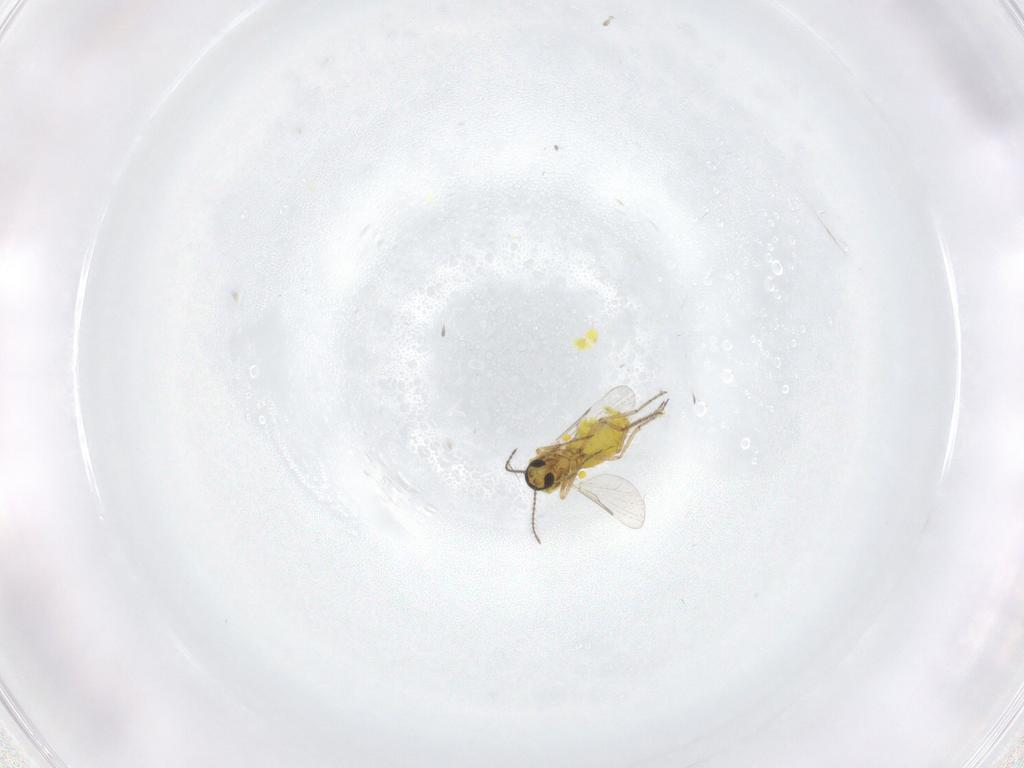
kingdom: Animalia
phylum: Arthropoda
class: Insecta
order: Diptera
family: Ceratopogonidae
